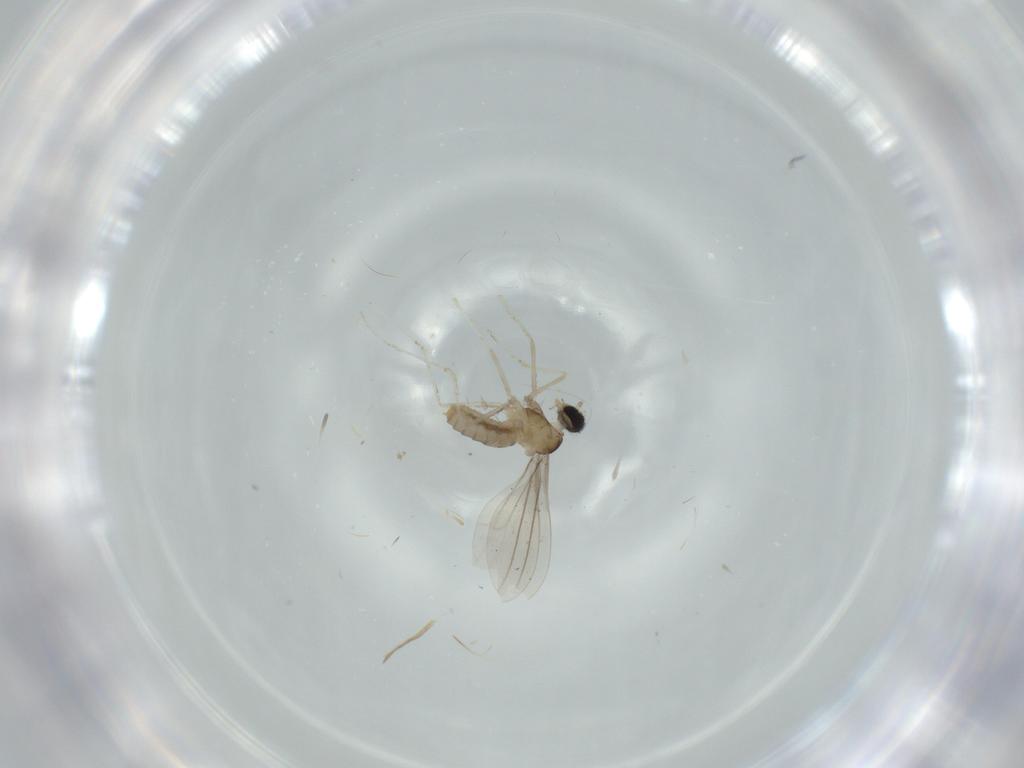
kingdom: Animalia
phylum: Arthropoda
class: Insecta
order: Diptera
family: Cecidomyiidae
